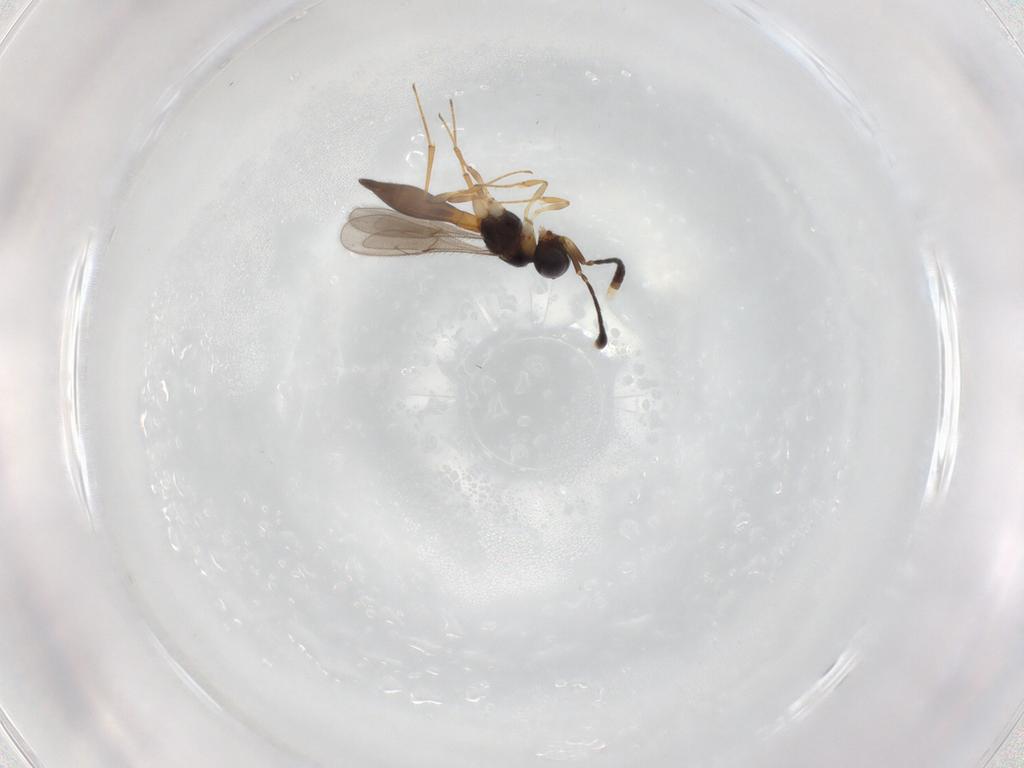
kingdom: Animalia
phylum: Arthropoda
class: Insecta
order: Hymenoptera
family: Scelionidae
